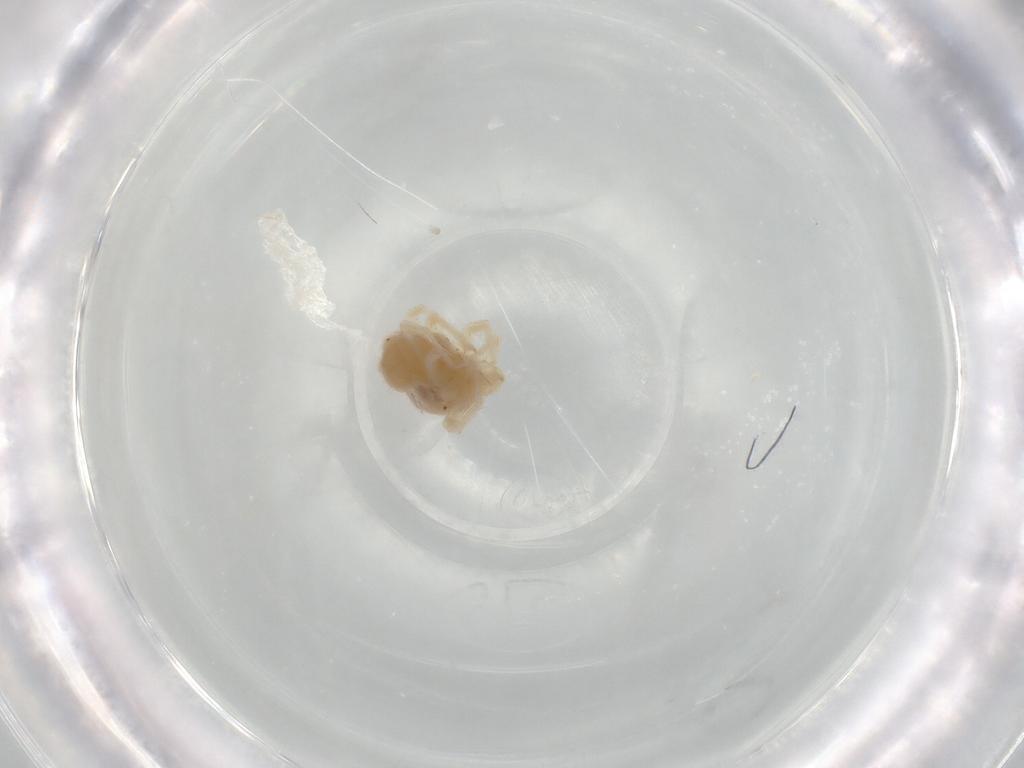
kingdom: Animalia
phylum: Arthropoda
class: Arachnida
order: Trombidiformes
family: Anystidae
